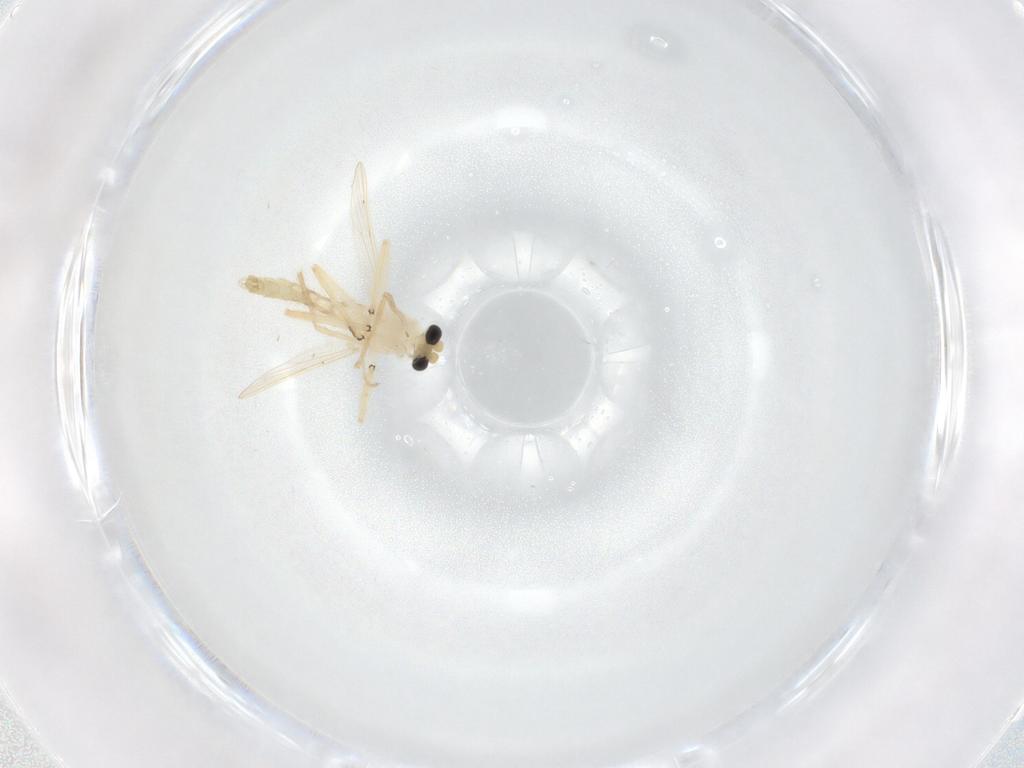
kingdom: Animalia
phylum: Arthropoda
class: Insecta
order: Diptera
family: Chironomidae
